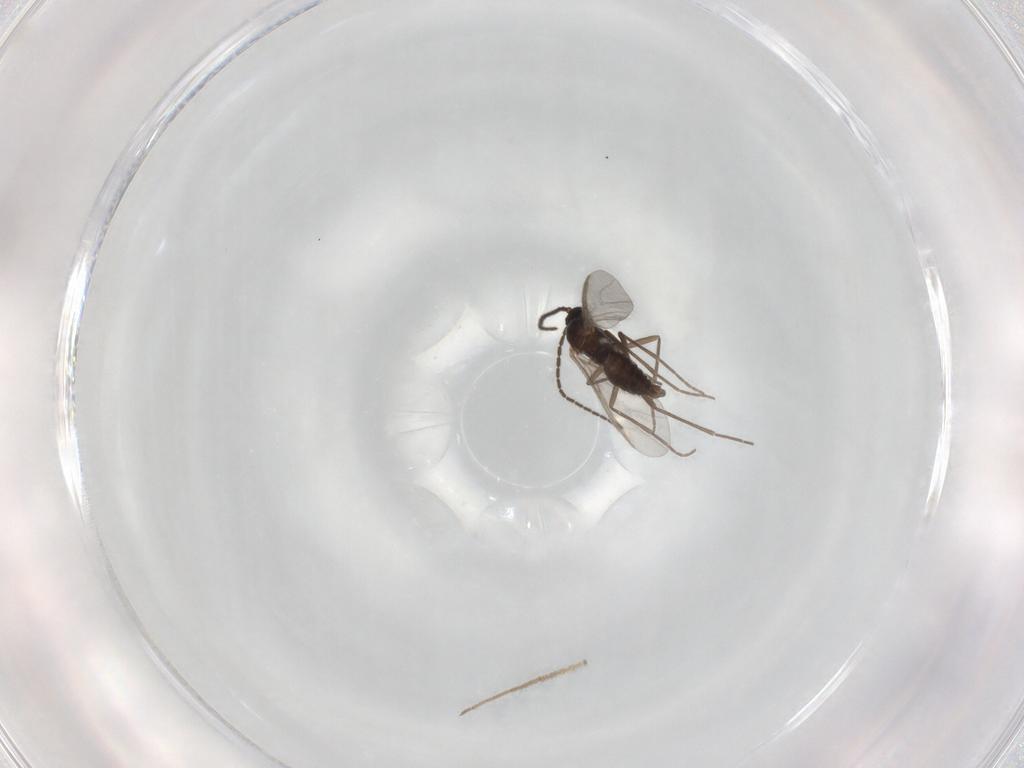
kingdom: Animalia
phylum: Arthropoda
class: Insecta
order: Diptera
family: Sciaridae
